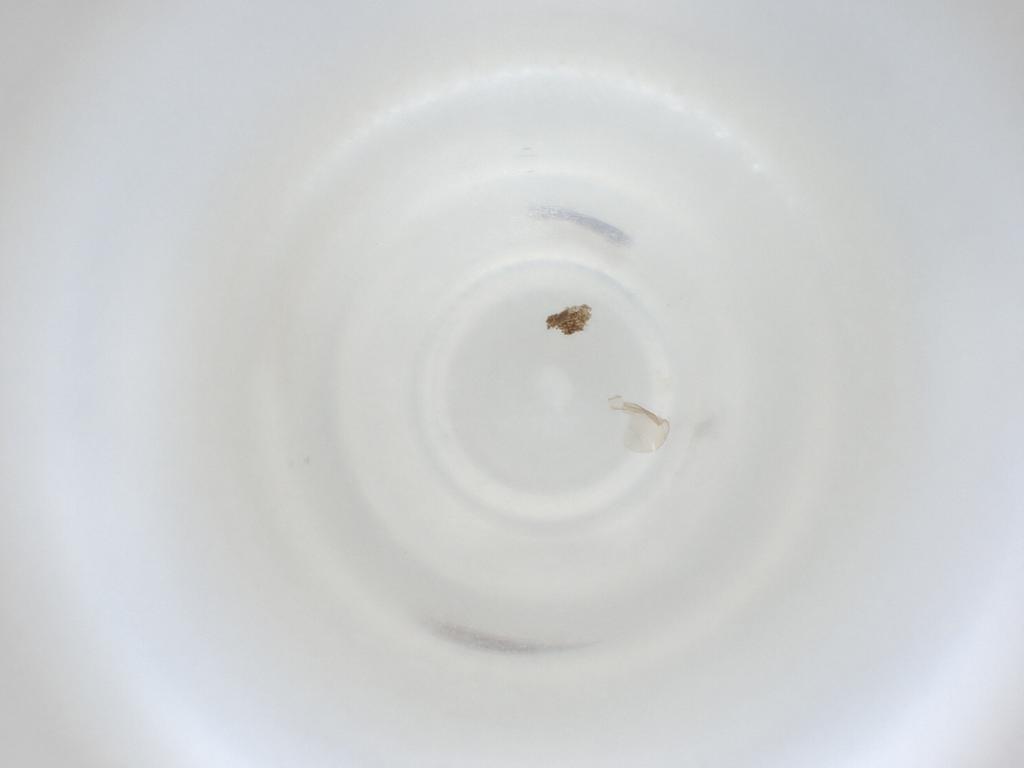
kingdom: Animalia
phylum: Arthropoda
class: Insecta
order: Diptera
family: Cecidomyiidae
